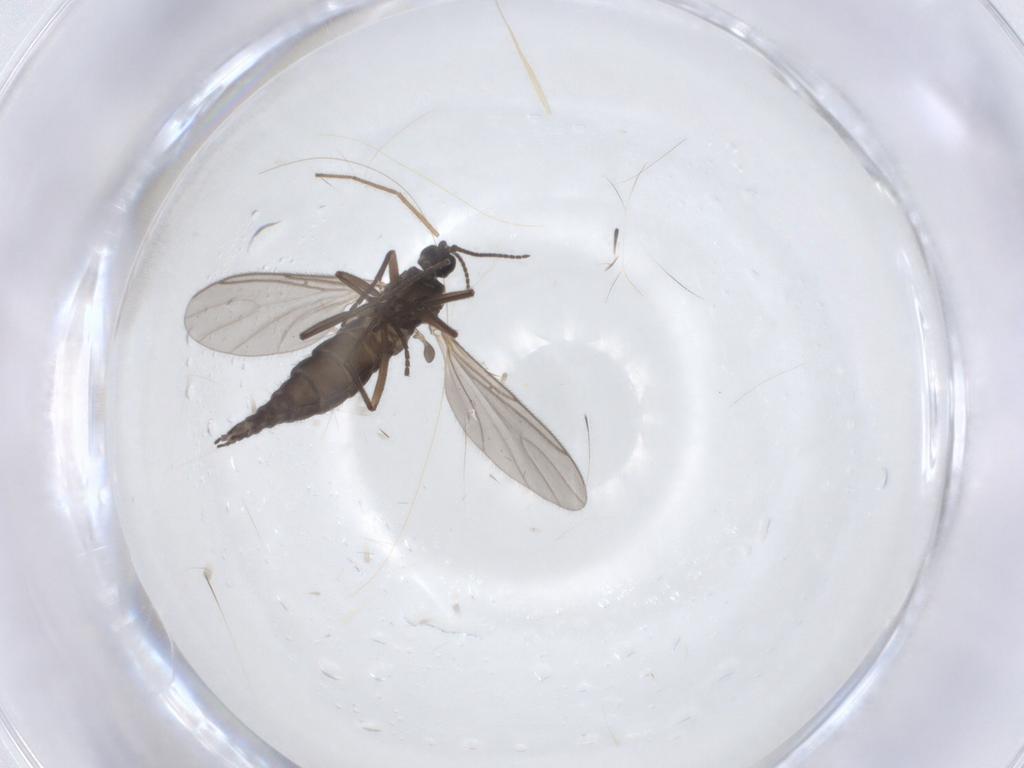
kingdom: Animalia
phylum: Arthropoda
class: Insecta
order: Diptera
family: Sciaridae
